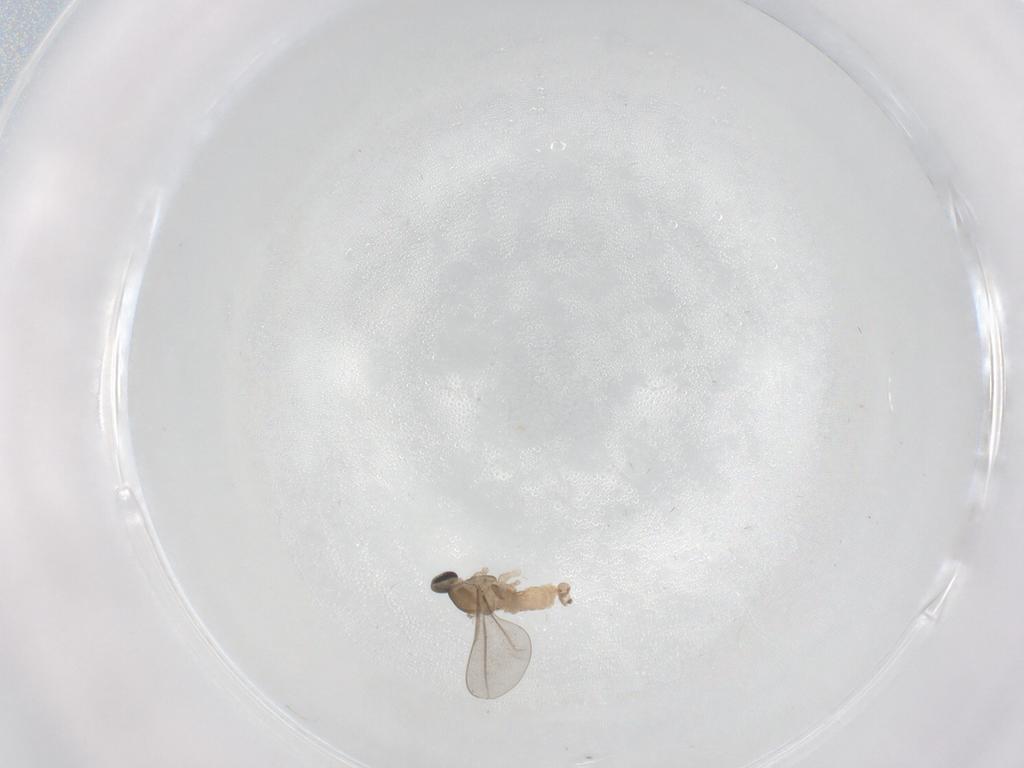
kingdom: Animalia
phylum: Arthropoda
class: Insecta
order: Diptera
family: Cecidomyiidae
